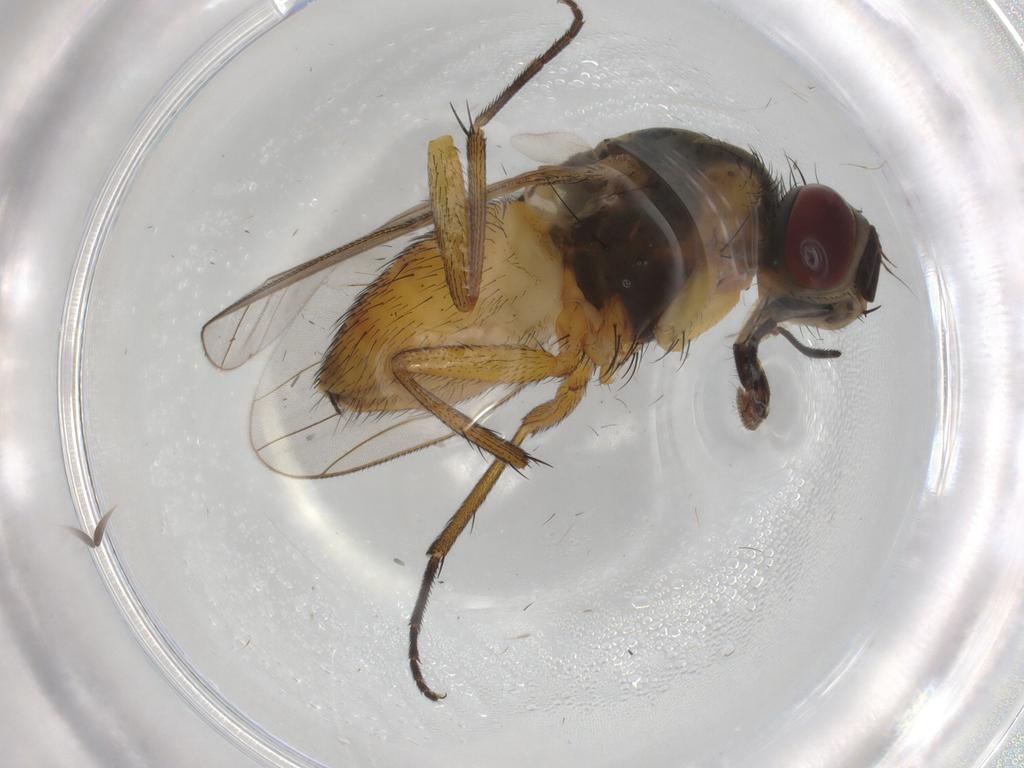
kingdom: Animalia
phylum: Arthropoda
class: Insecta
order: Diptera
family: Muscidae
